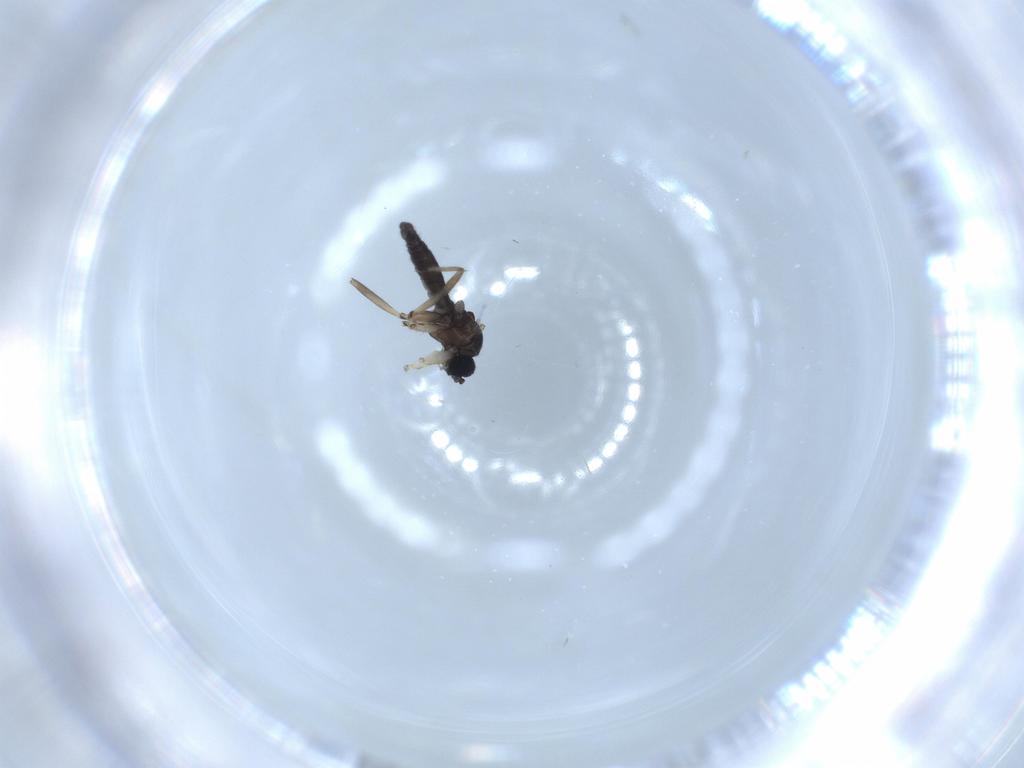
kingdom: Animalia
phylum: Arthropoda
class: Insecta
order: Diptera
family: Sciaridae
